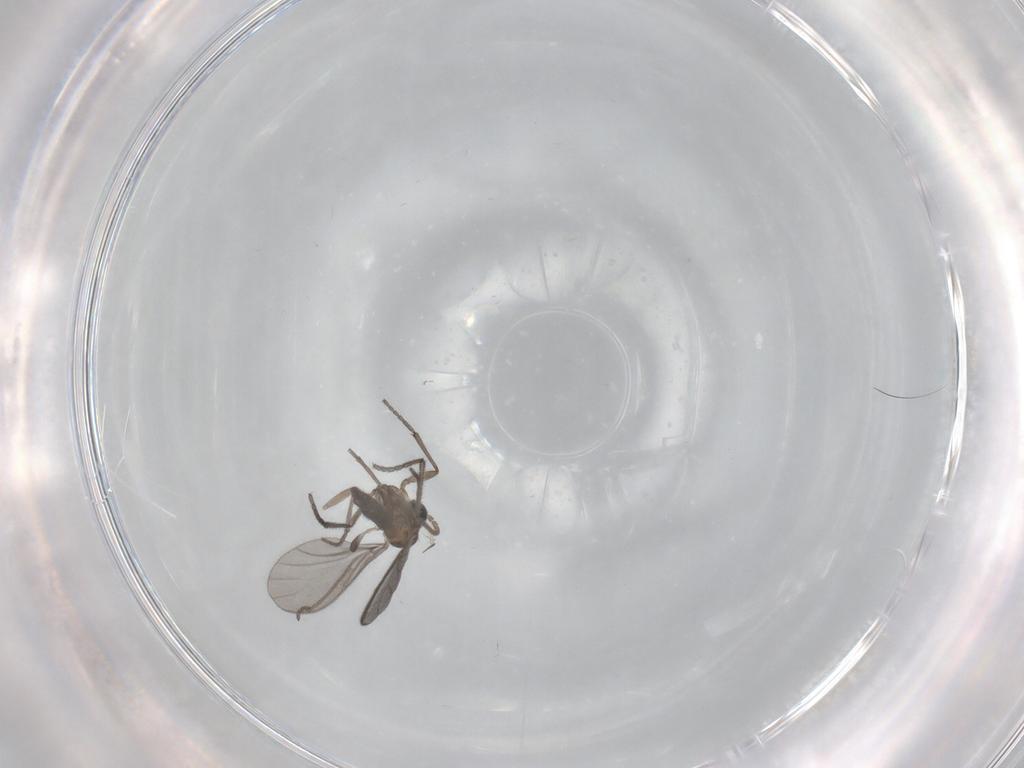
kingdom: Animalia
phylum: Arthropoda
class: Insecta
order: Diptera
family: Sciaridae
